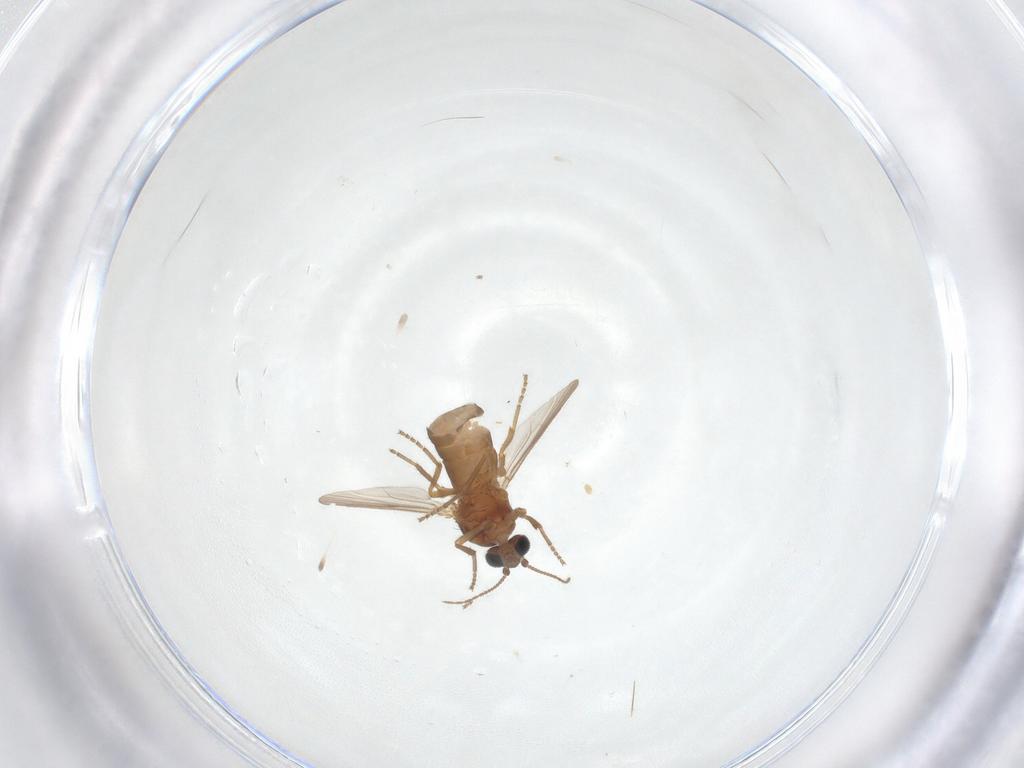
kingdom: Animalia
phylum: Arthropoda
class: Insecta
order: Diptera
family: Ceratopogonidae
